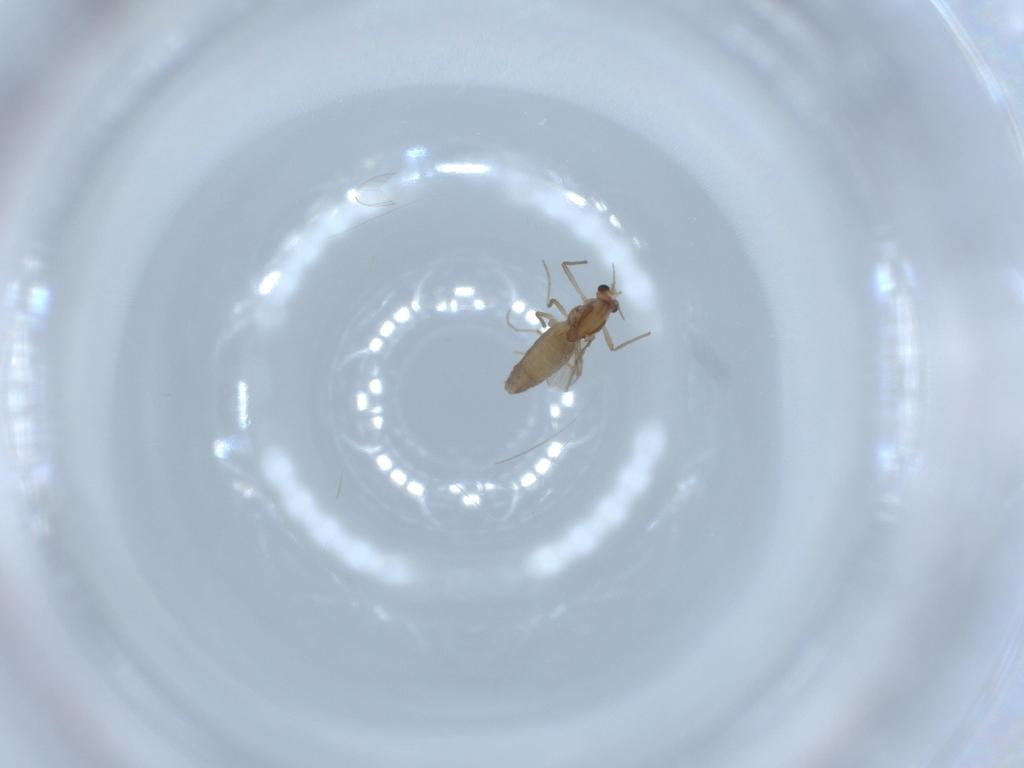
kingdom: Animalia
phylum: Arthropoda
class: Insecta
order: Diptera
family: Chironomidae
